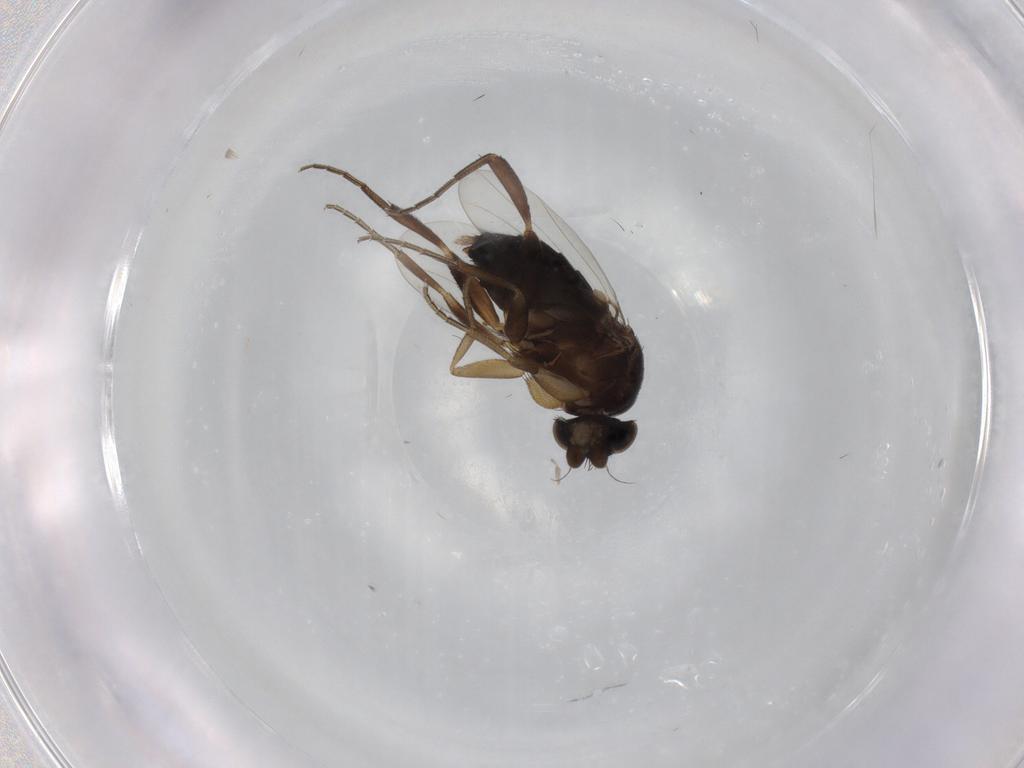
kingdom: Animalia
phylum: Arthropoda
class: Insecta
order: Diptera
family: Phoridae
